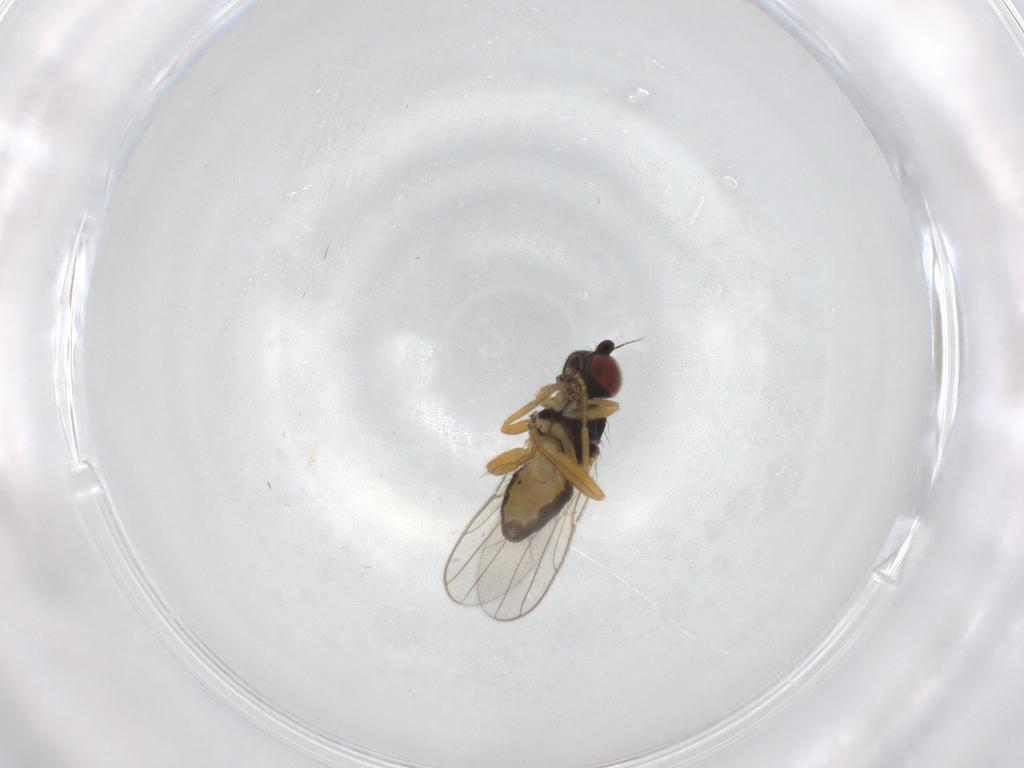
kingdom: Animalia
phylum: Arthropoda
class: Insecta
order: Diptera
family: Chloropidae
